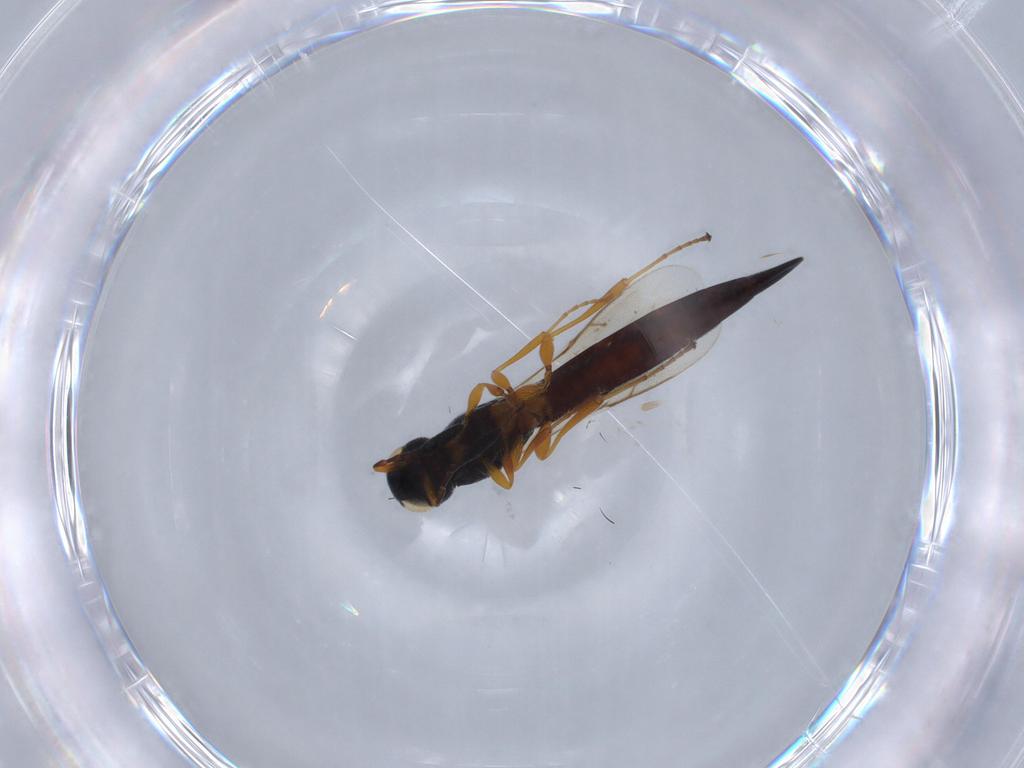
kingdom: Animalia
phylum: Arthropoda
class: Insecta
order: Hymenoptera
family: Scelionidae
